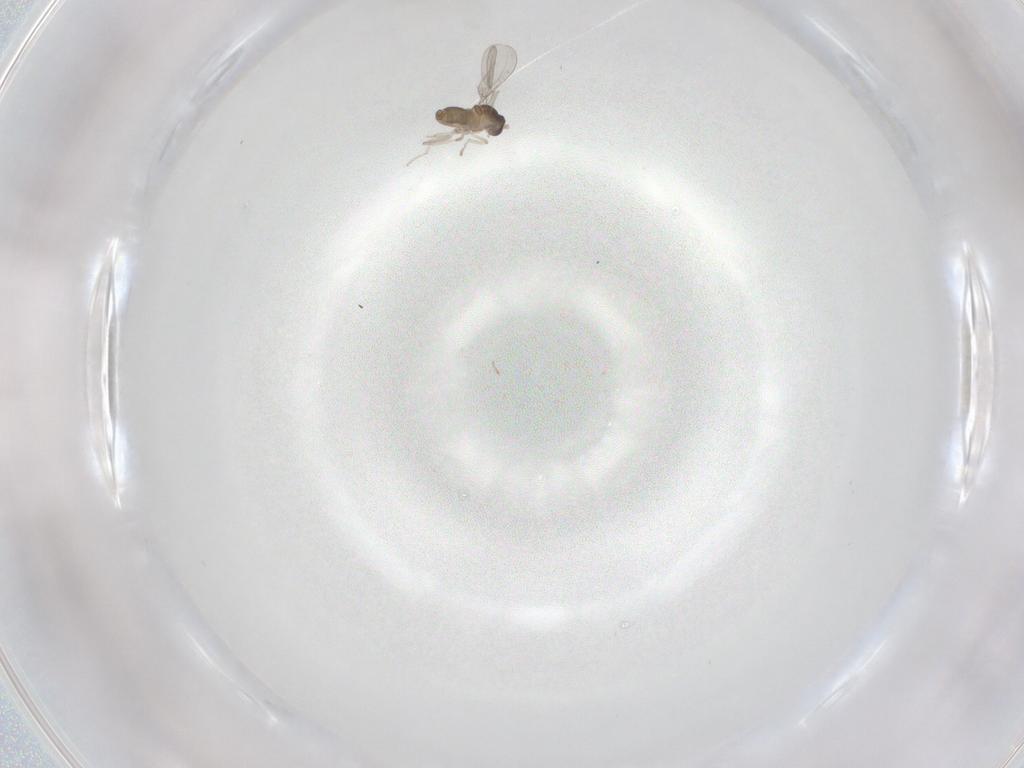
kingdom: Animalia
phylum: Arthropoda
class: Insecta
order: Diptera
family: Cecidomyiidae
